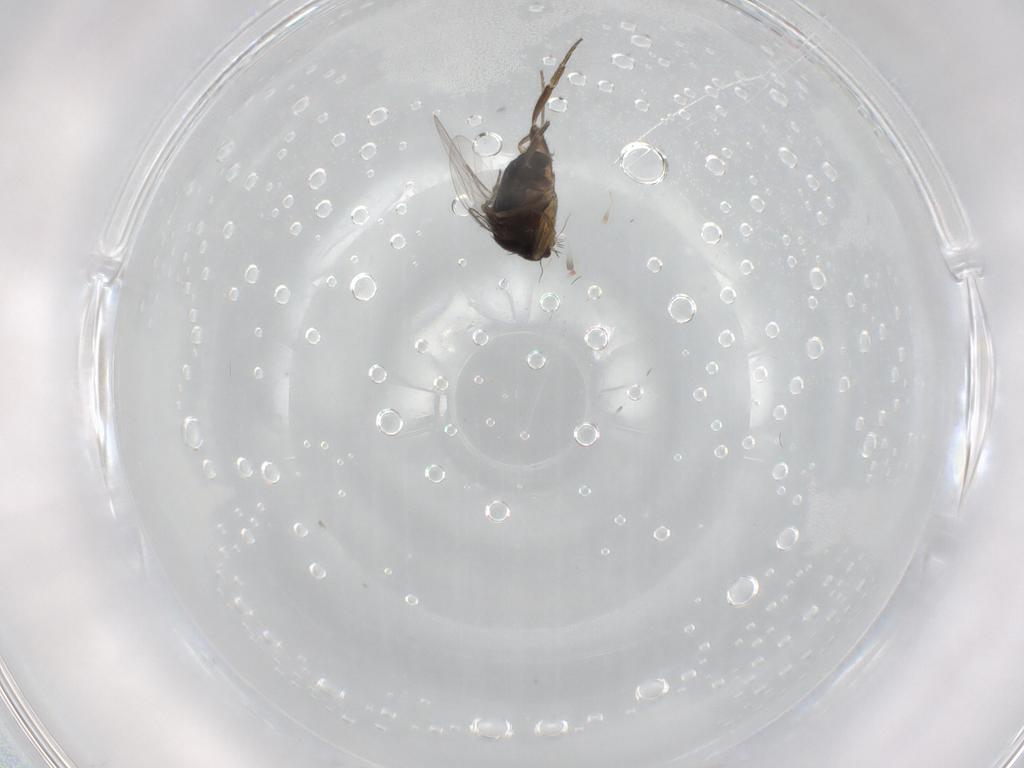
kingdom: Animalia
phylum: Arthropoda
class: Insecta
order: Diptera
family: Phoridae
